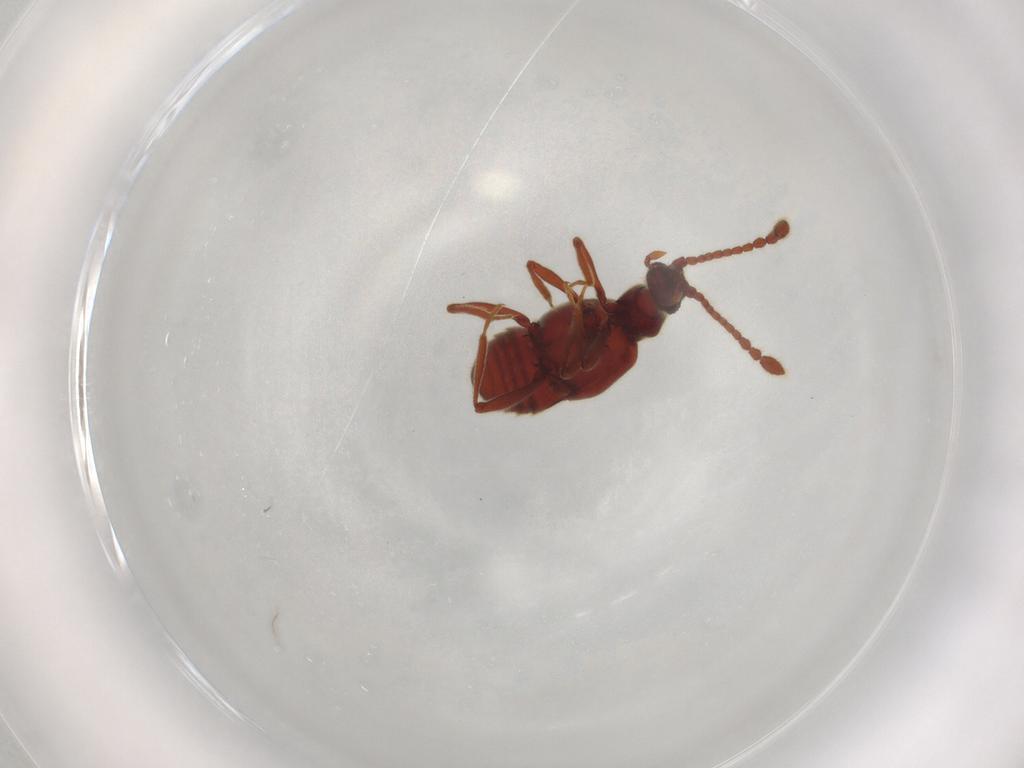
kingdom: Animalia
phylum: Arthropoda
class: Insecta
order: Coleoptera
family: Staphylinidae
